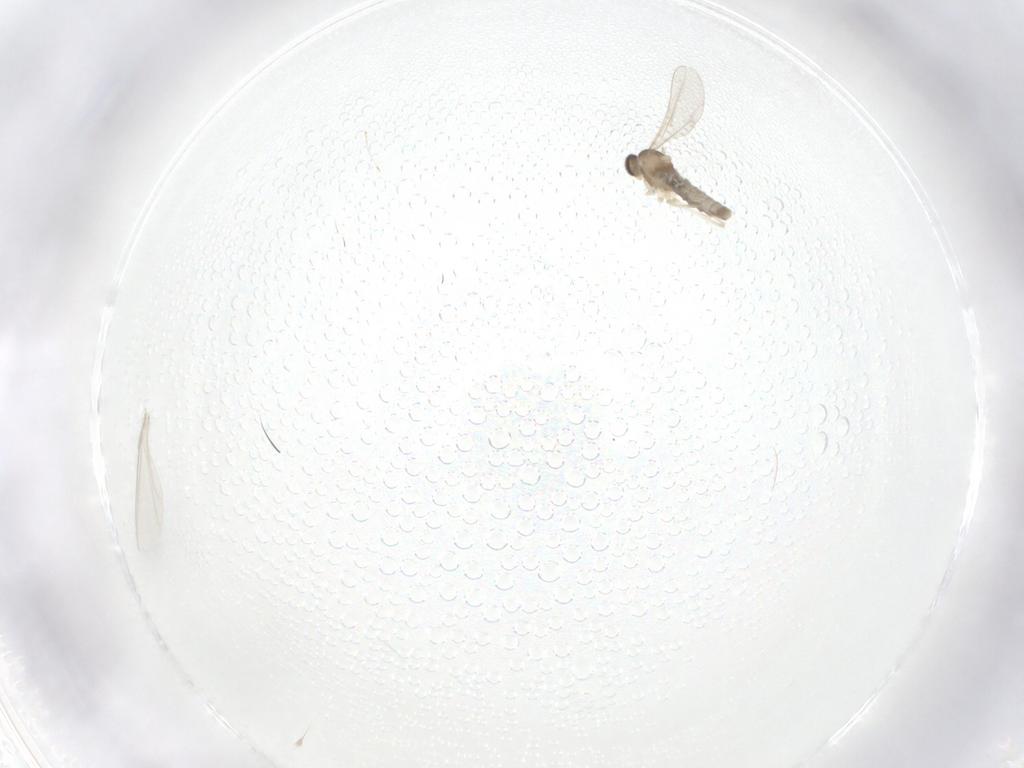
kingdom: Animalia
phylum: Arthropoda
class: Insecta
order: Diptera
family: Cecidomyiidae
